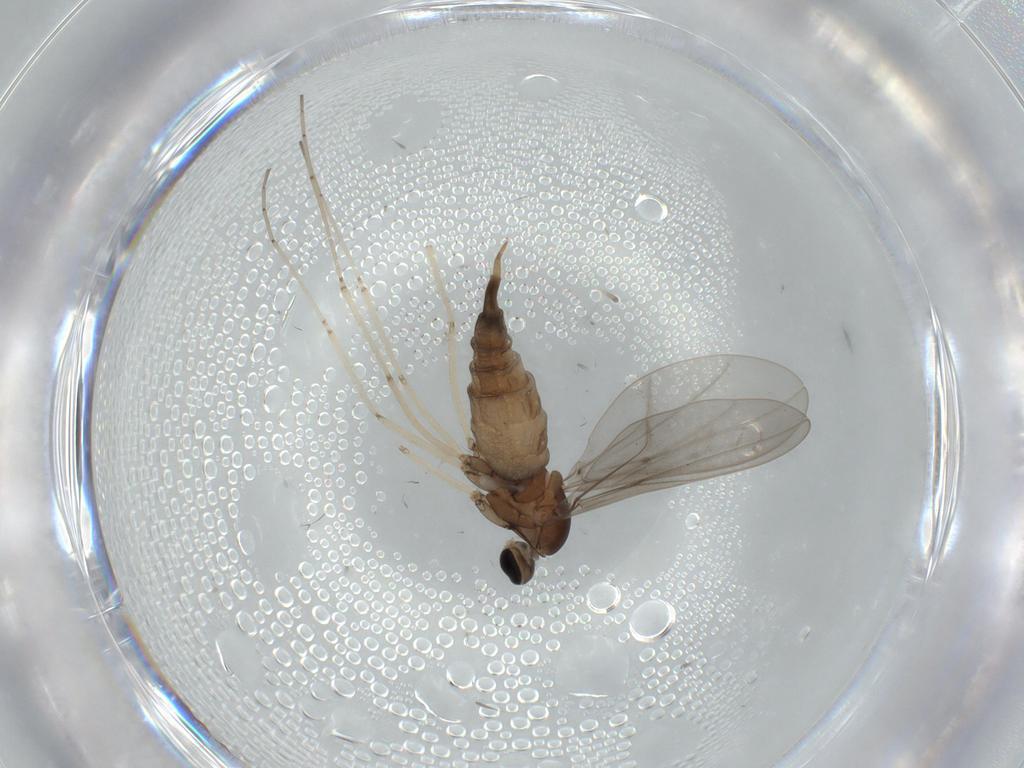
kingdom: Animalia
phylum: Arthropoda
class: Insecta
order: Diptera
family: Cecidomyiidae
